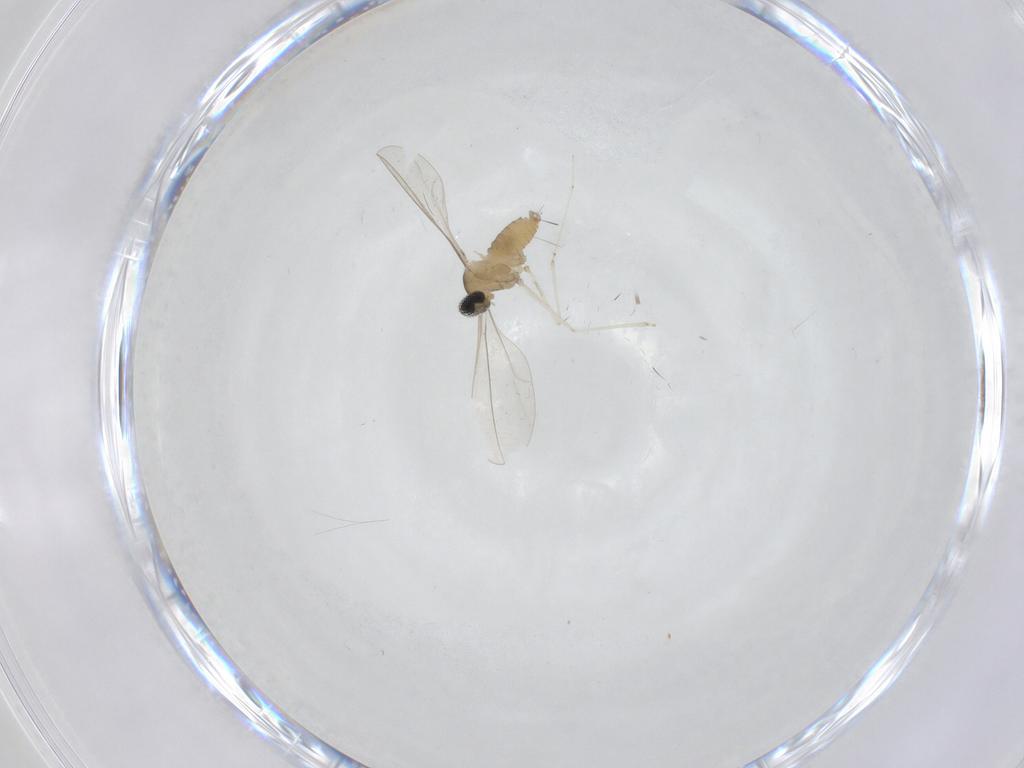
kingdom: Animalia
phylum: Arthropoda
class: Insecta
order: Diptera
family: Cecidomyiidae
